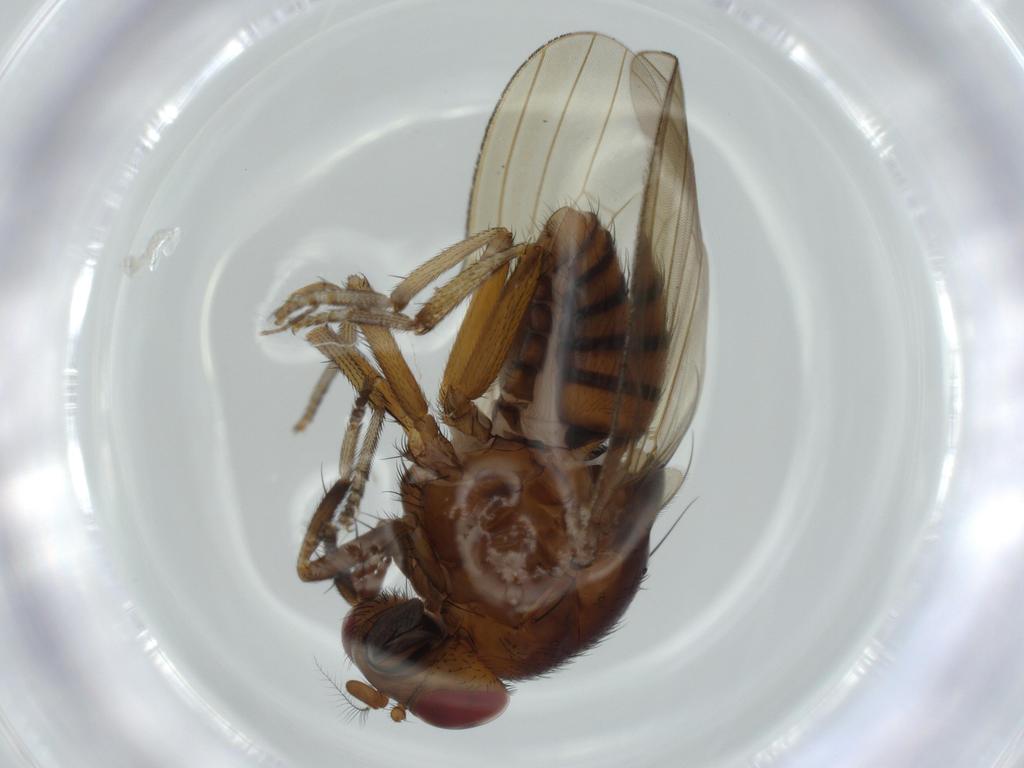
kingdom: Animalia
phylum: Arthropoda
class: Insecta
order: Diptera
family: Lauxaniidae
